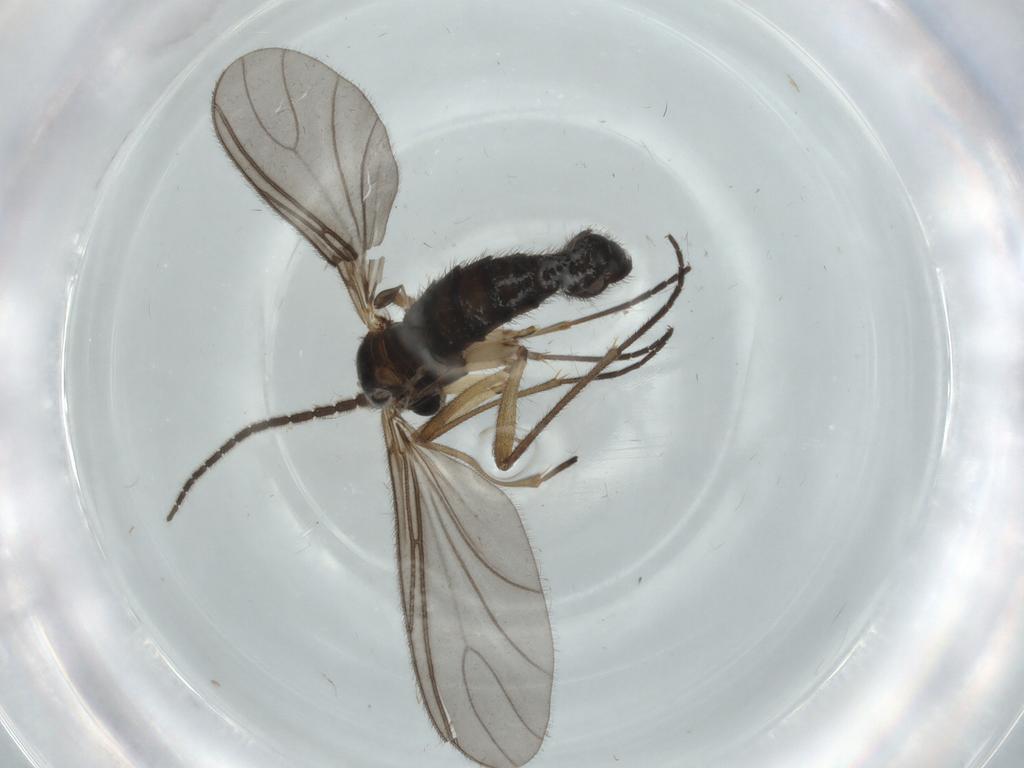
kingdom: Animalia
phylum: Arthropoda
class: Insecta
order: Diptera
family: Sciaridae
